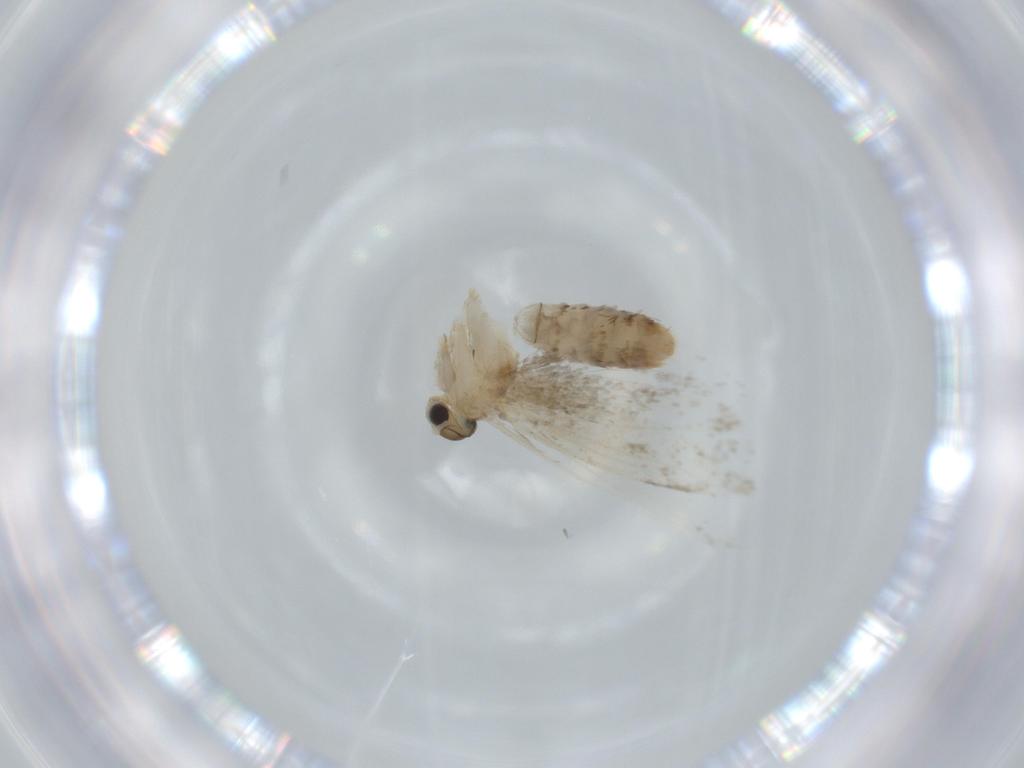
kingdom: Animalia
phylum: Arthropoda
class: Insecta
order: Lepidoptera
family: Tineidae
